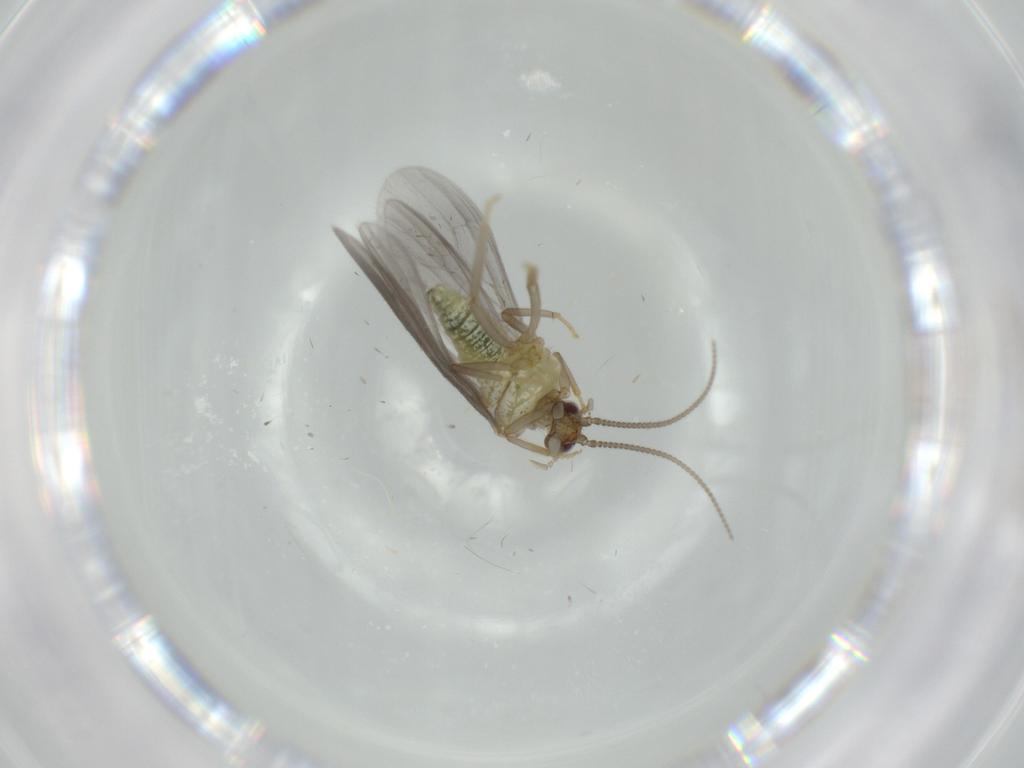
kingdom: Animalia
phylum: Arthropoda
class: Insecta
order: Neuroptera
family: Coniopterygidae
